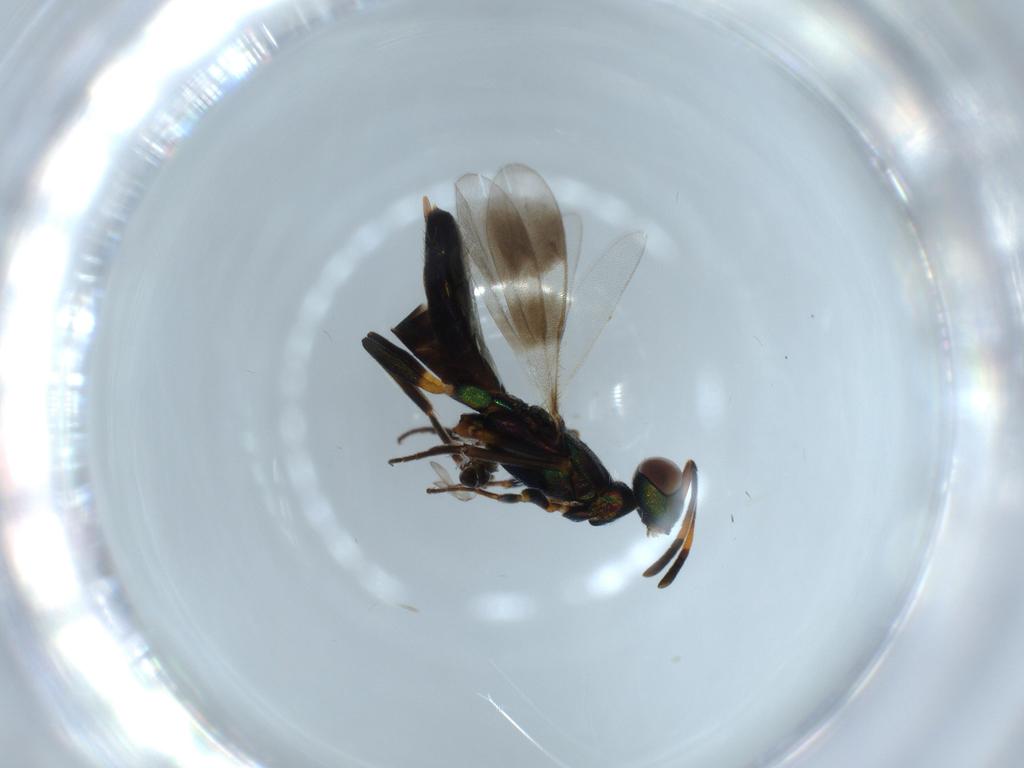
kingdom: Animalia
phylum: Arthropoda
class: Insecta
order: Hymenoptera
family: Eupelmidae
